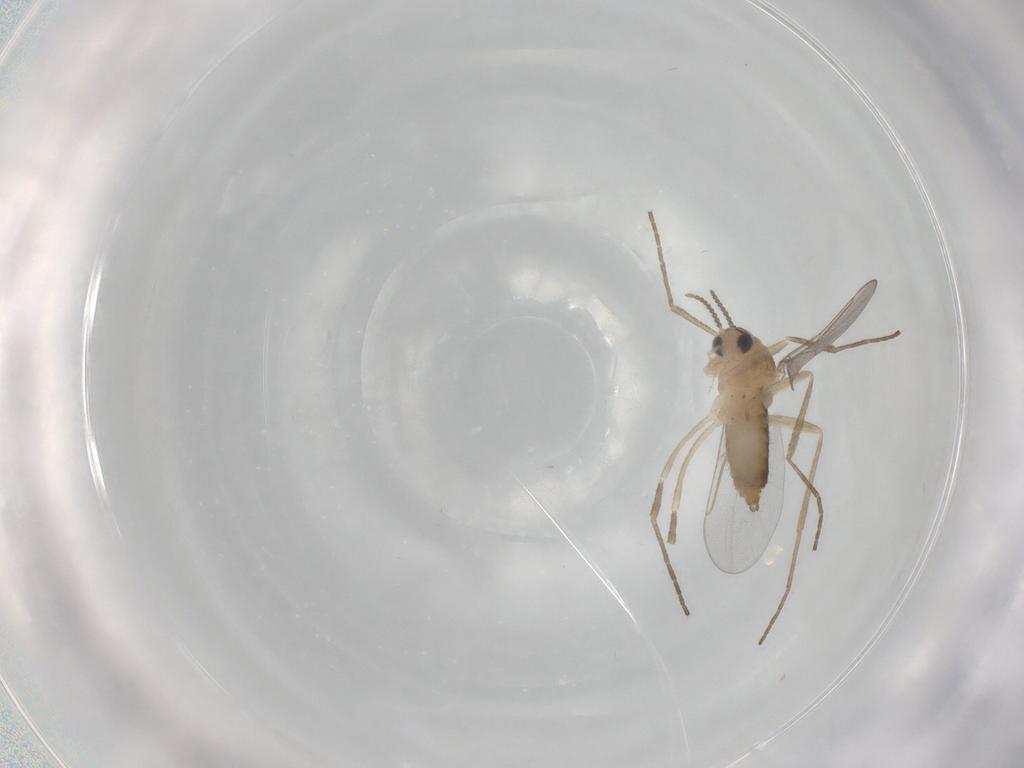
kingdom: Animalia
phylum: Arthropoda
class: Insecta
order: Diptera
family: Cecidomyiidae
